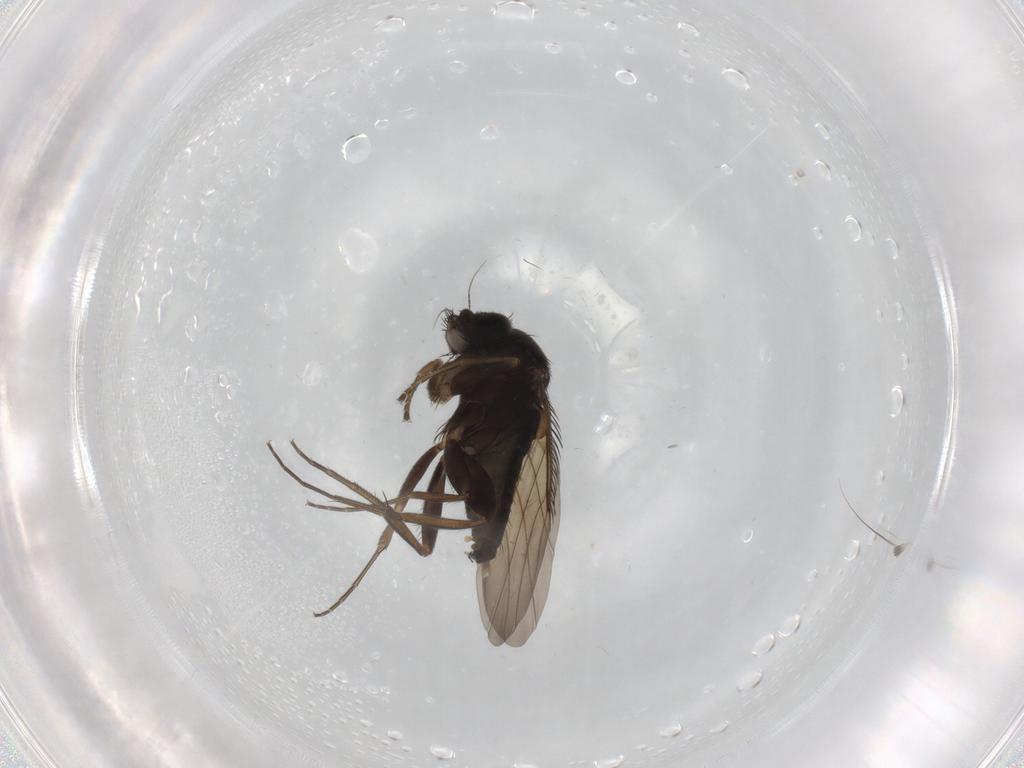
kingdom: Animalia
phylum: Arthropoda
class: Insecta
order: Diptera
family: Phoridae
